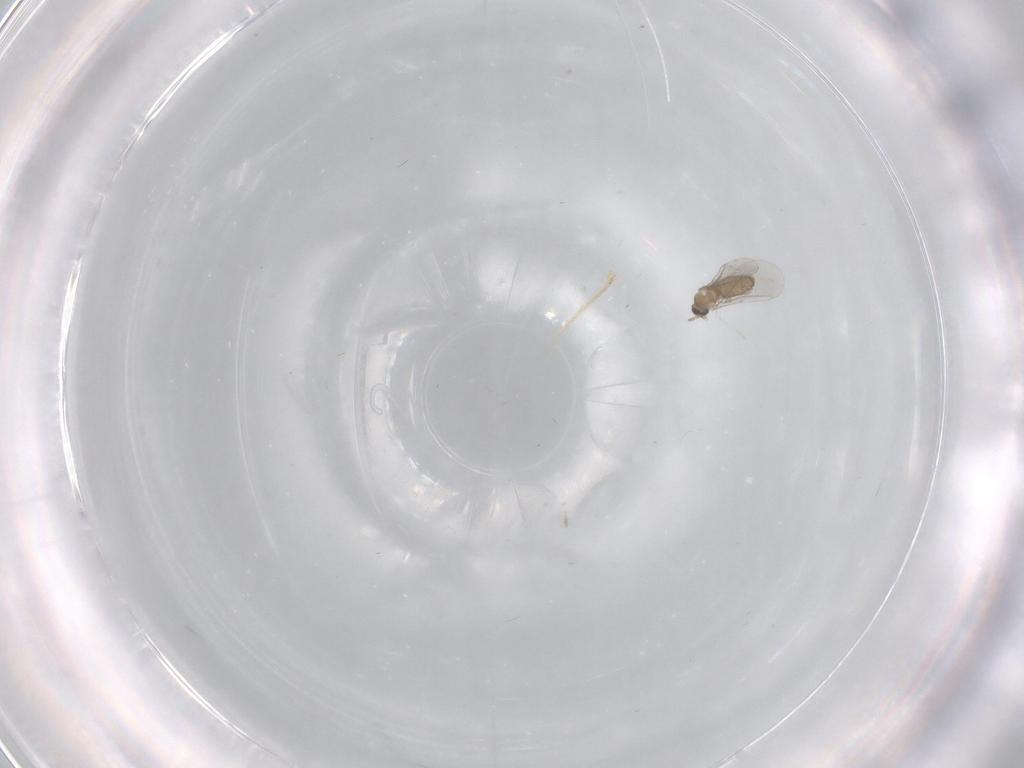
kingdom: Animalia
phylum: Arthropoda
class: Insecta
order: Diptera
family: Cecidomyiidae
